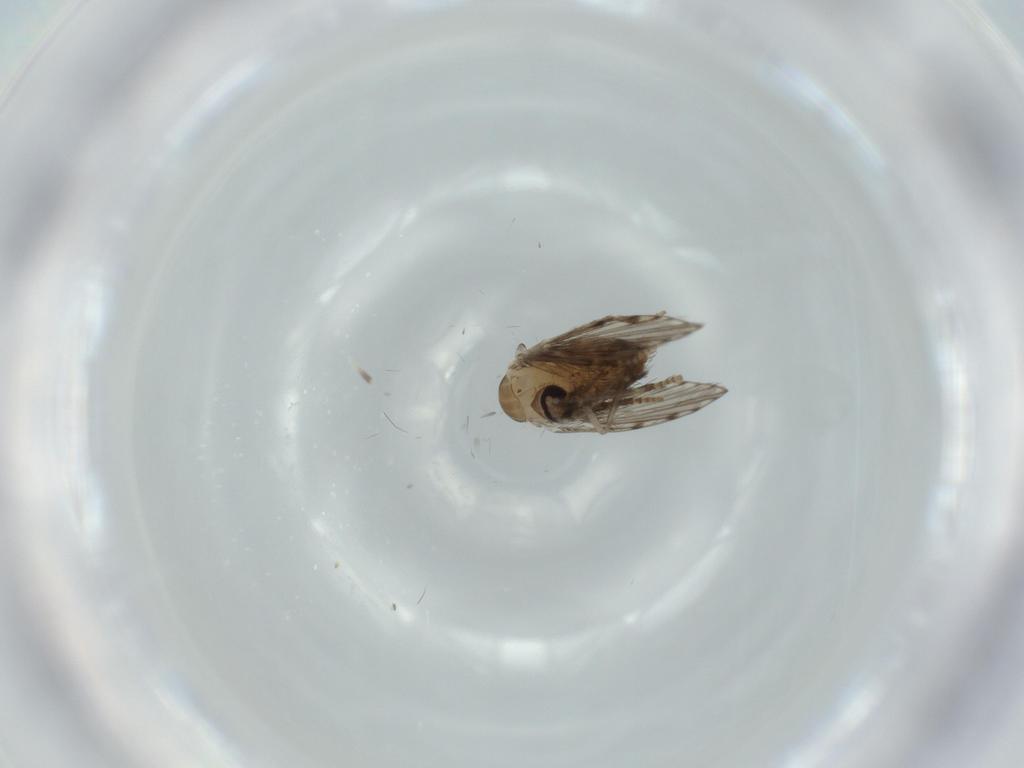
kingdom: Animalia
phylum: Arthropoda
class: Insecta
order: Diptera
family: Psychodidae
